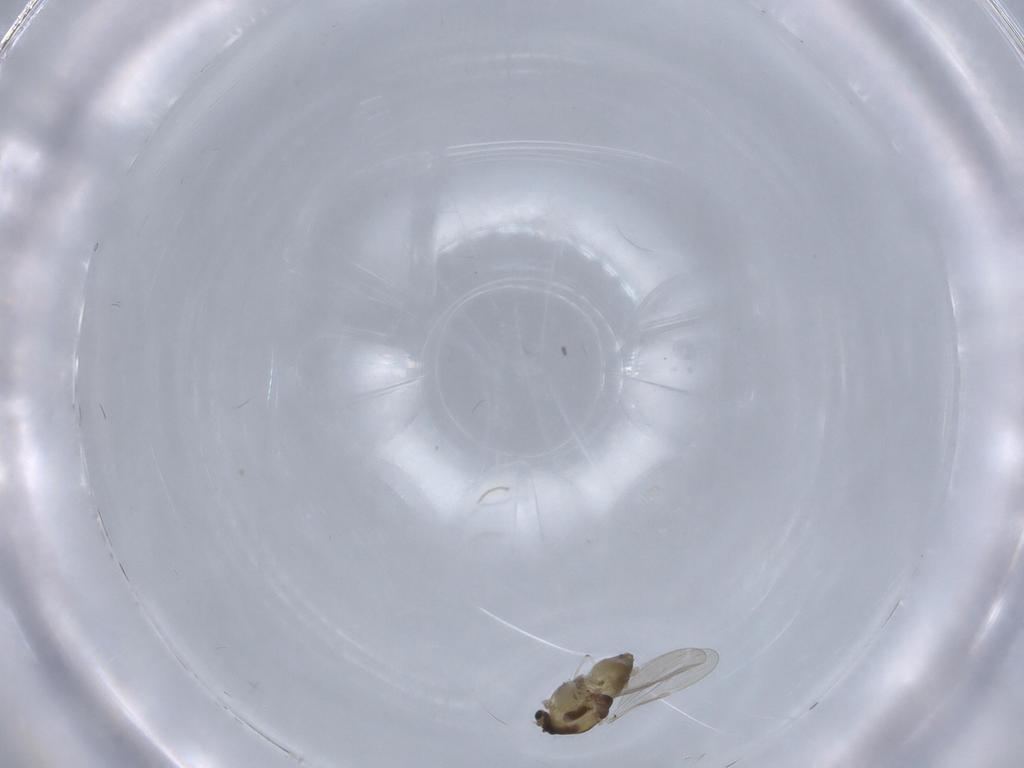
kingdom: Animalia
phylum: Arthropoda
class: Insecta
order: Diptera
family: Chironomidae
